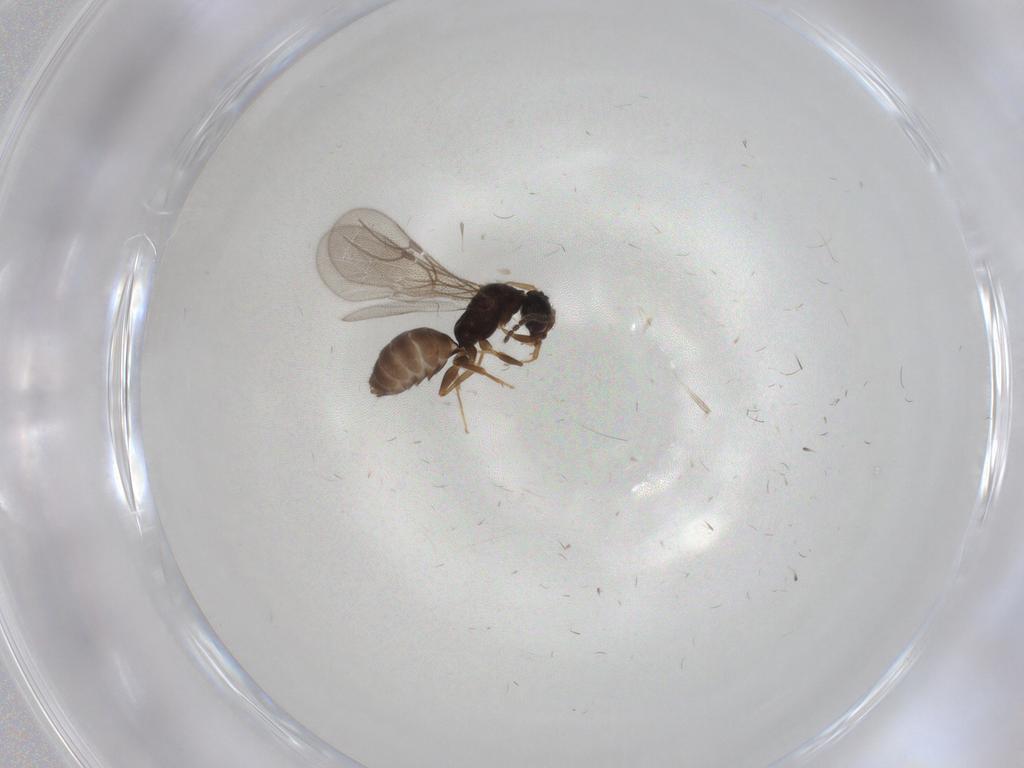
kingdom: Animalia
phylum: Arthropoda
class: Insecta
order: Hymenoptera
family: Bethylidae
